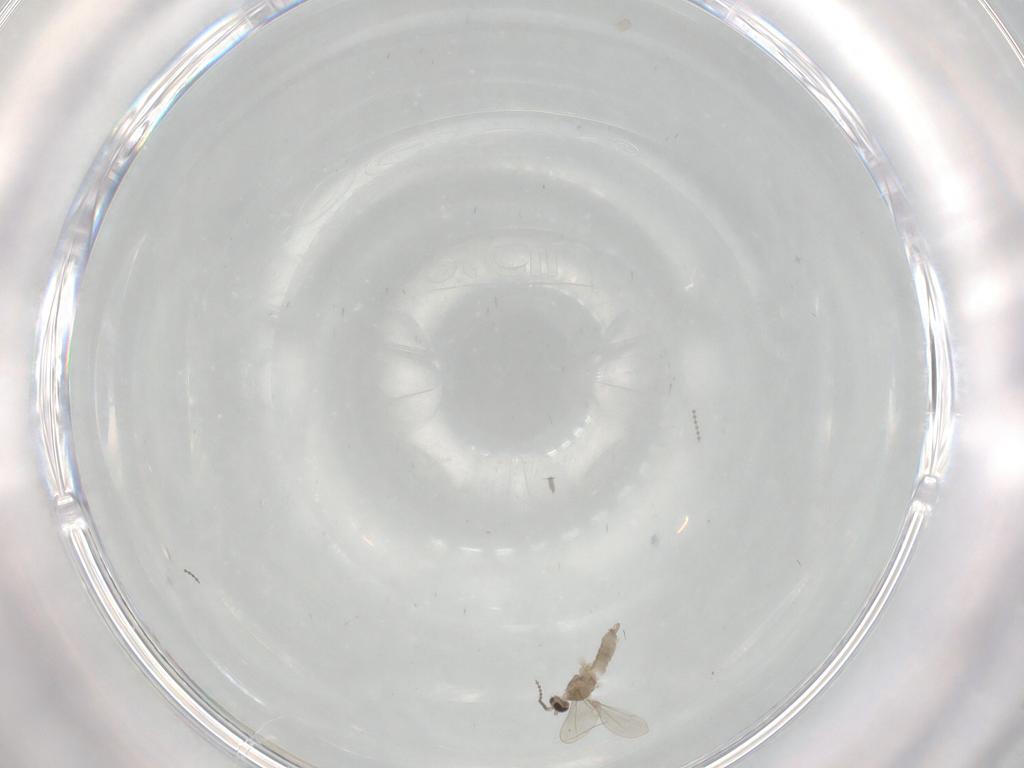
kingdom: Animalia
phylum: Arthropoda
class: Insecta
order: Diptera
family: Cecidomyiidae
